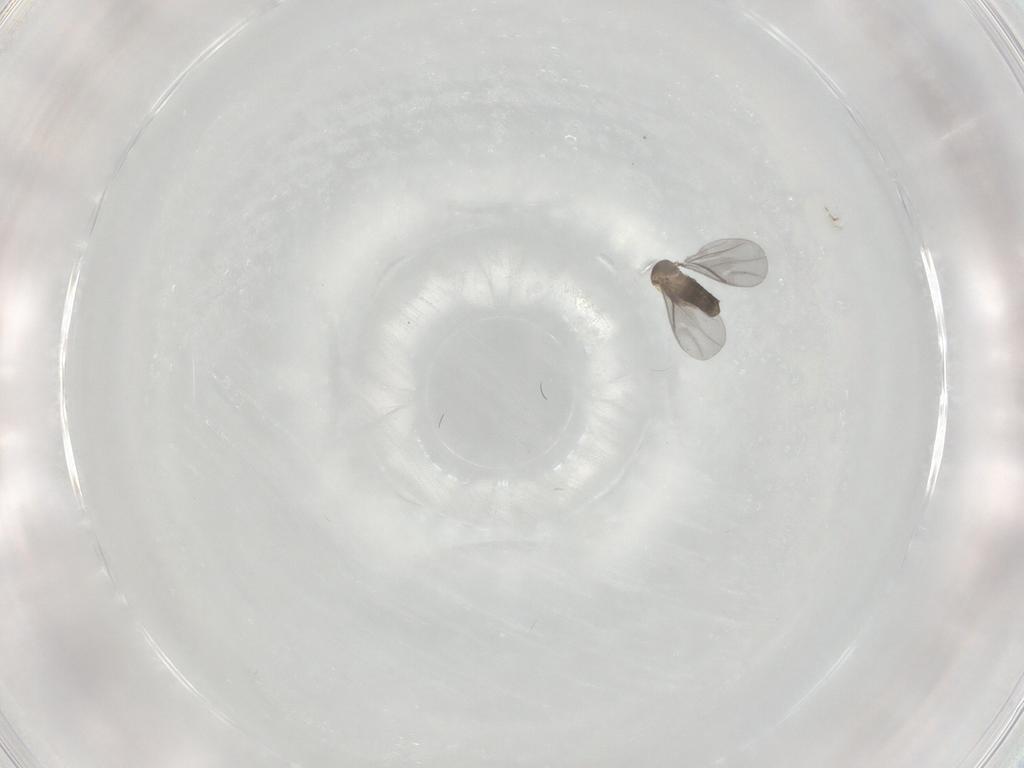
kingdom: Animalia
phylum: Arthropoda
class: Insecta
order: Diptera
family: Chironomidae
